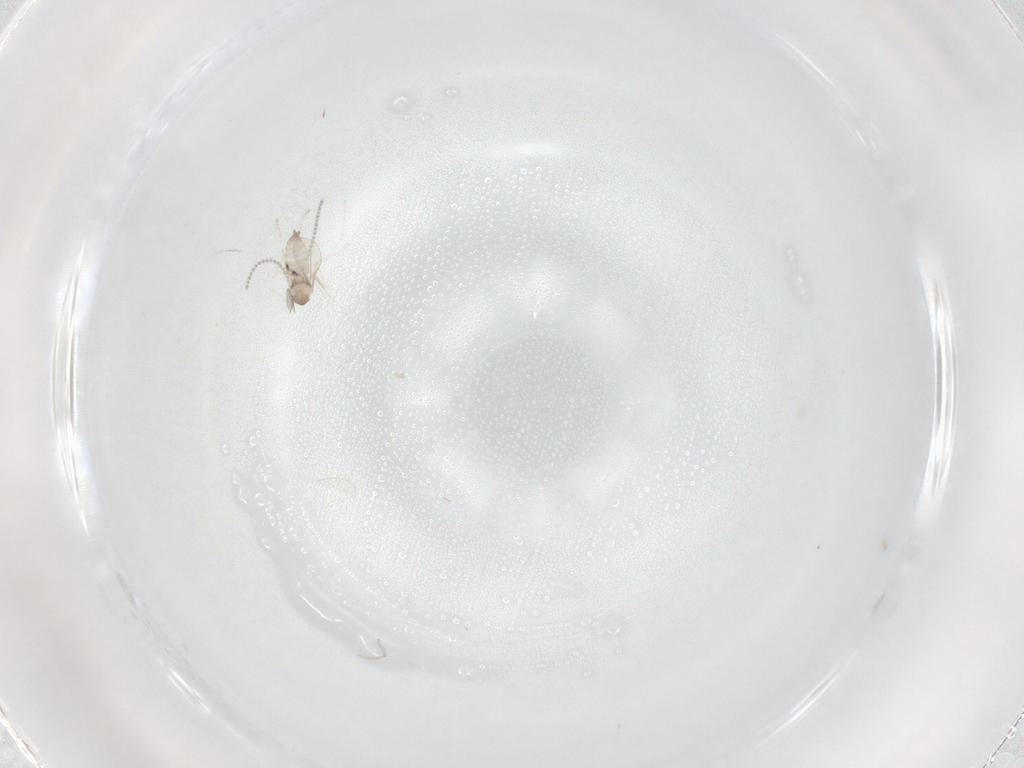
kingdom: Animalia
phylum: Arthropoda
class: Insecta
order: Diptera
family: Cecidomyiidae
